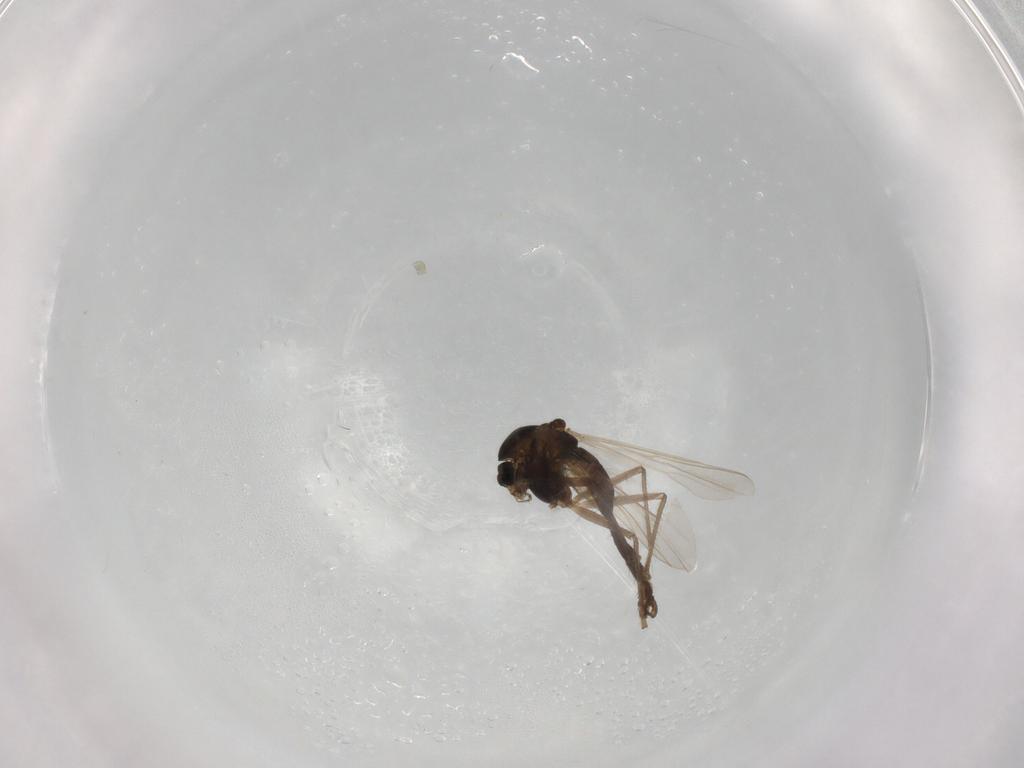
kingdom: Animalia
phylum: Arthropoda
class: Insecta
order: Diptera
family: Chironomidae
